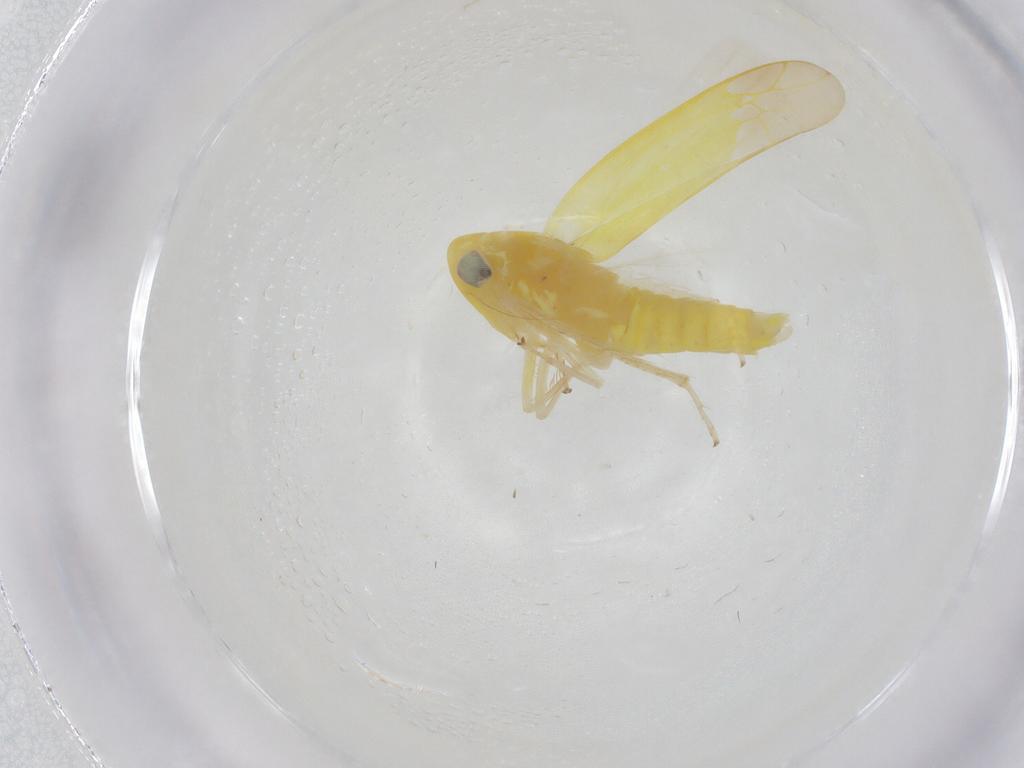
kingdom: Animalia
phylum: Arthropoda
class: Insecta
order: Hemiptera
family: Cicadellidae
